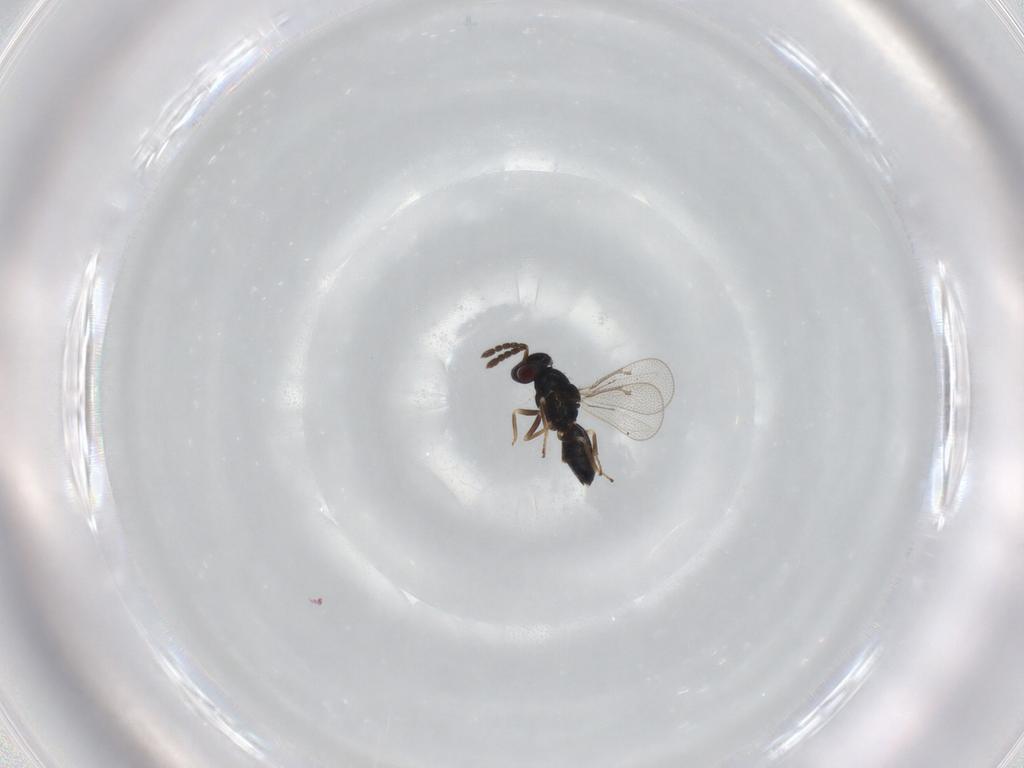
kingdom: Animalia
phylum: Arthropoda
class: Insecta
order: Hymenoptera
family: Eulophidae
